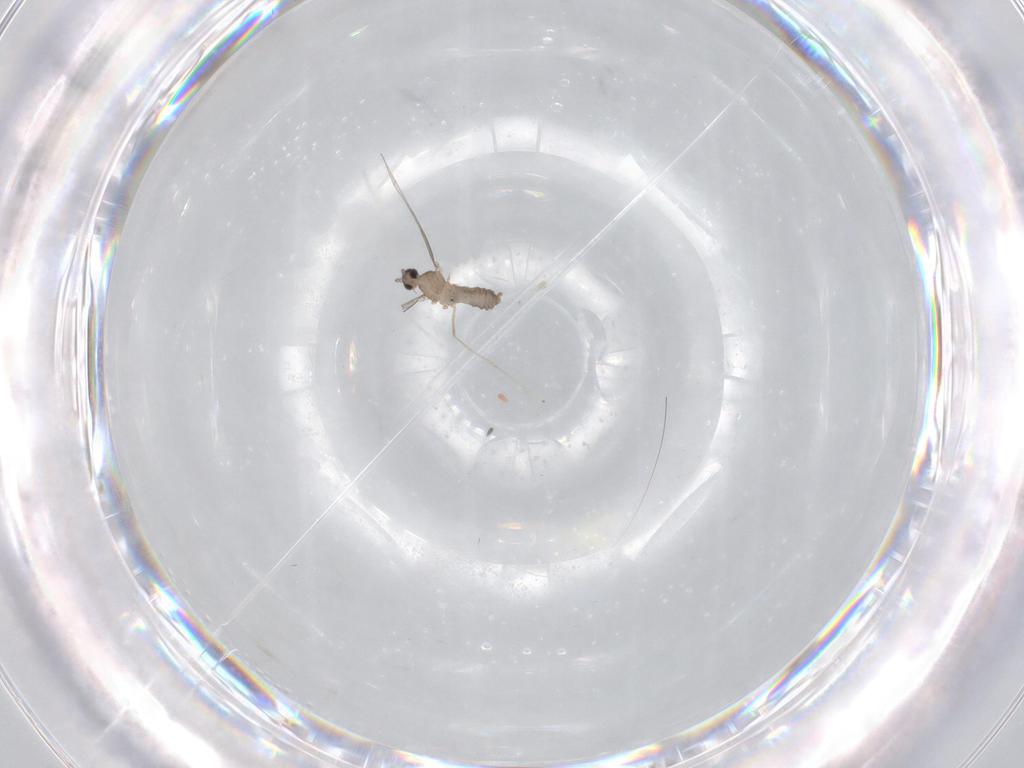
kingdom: Animalia
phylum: Arthropoda
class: Insecta
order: Diptera
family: Cecidomyiidae
